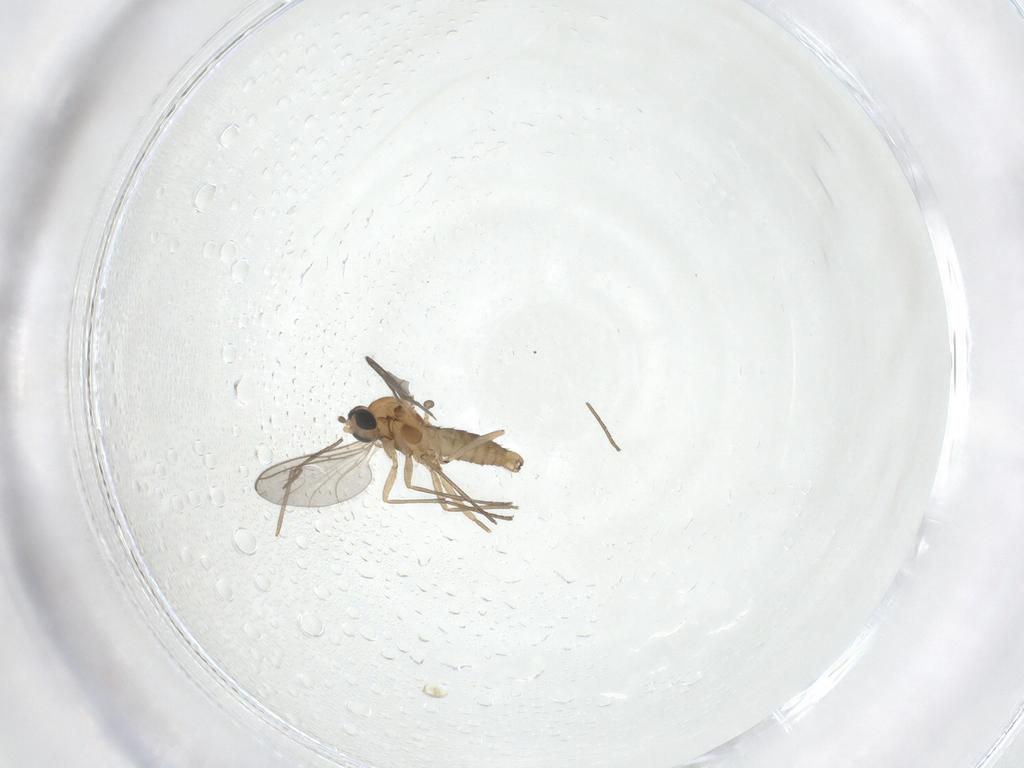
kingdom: Animalia
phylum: Arthropoda
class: Insecta
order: Diptera
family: Sciaridae
